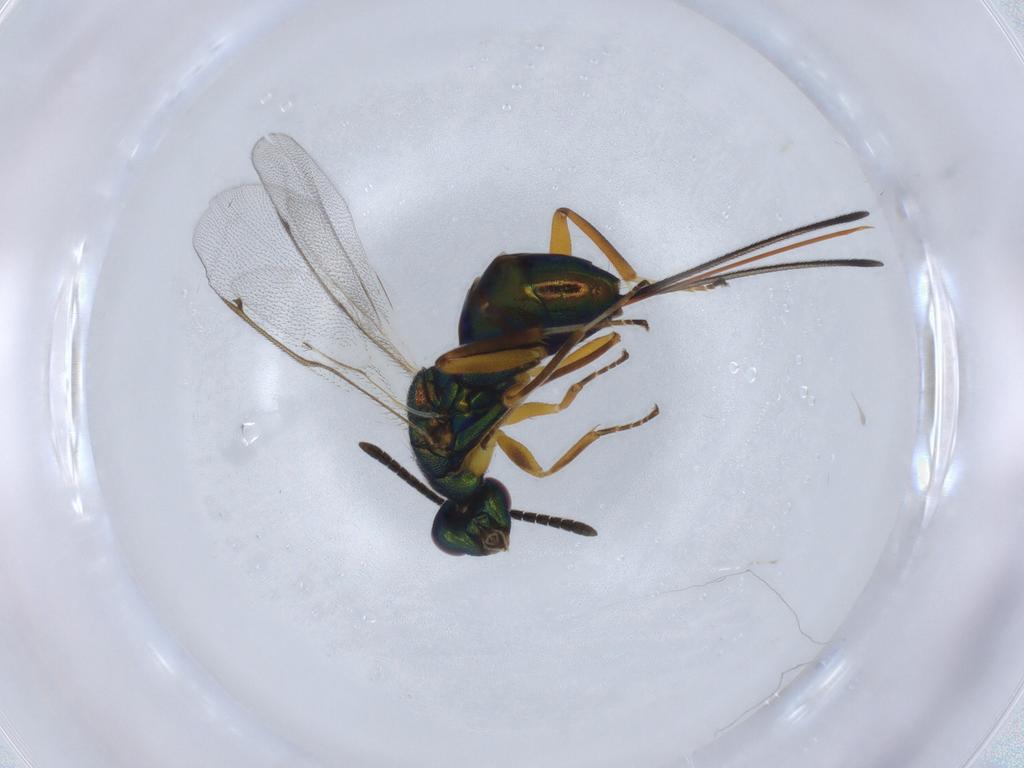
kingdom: Animalia
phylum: Arthropoda
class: Insecta
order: Hymenoptera
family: Torymidae
